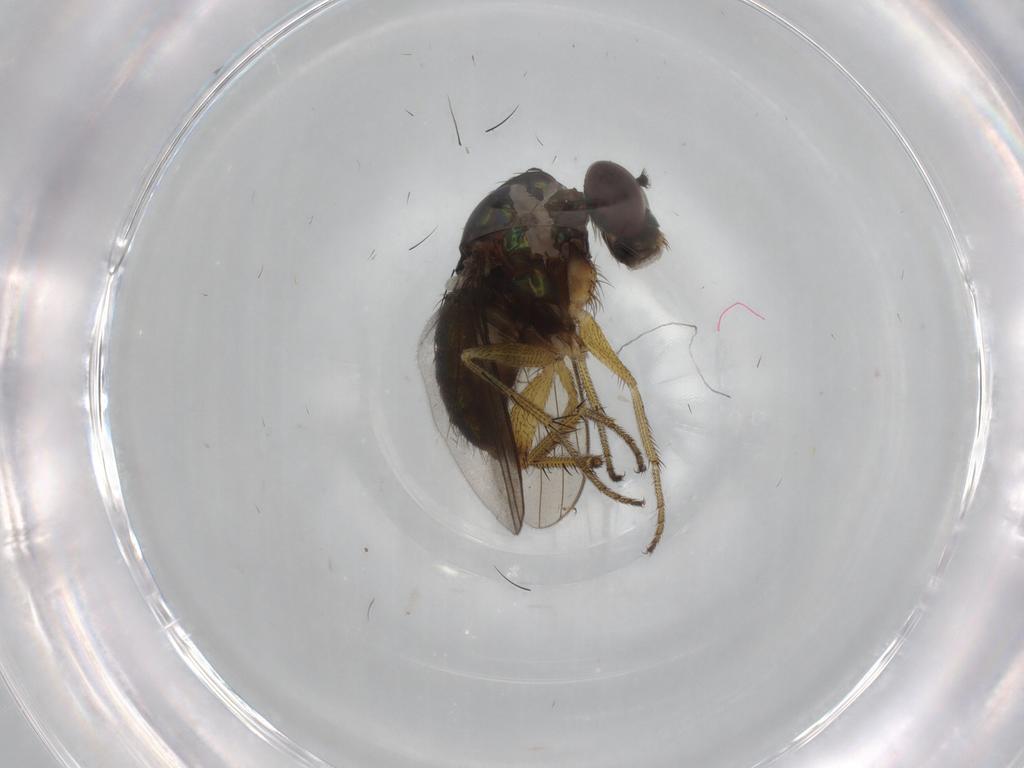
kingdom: Animalia
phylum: Arthropoda
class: Insecta
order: Diptera
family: Dolichopodidae
